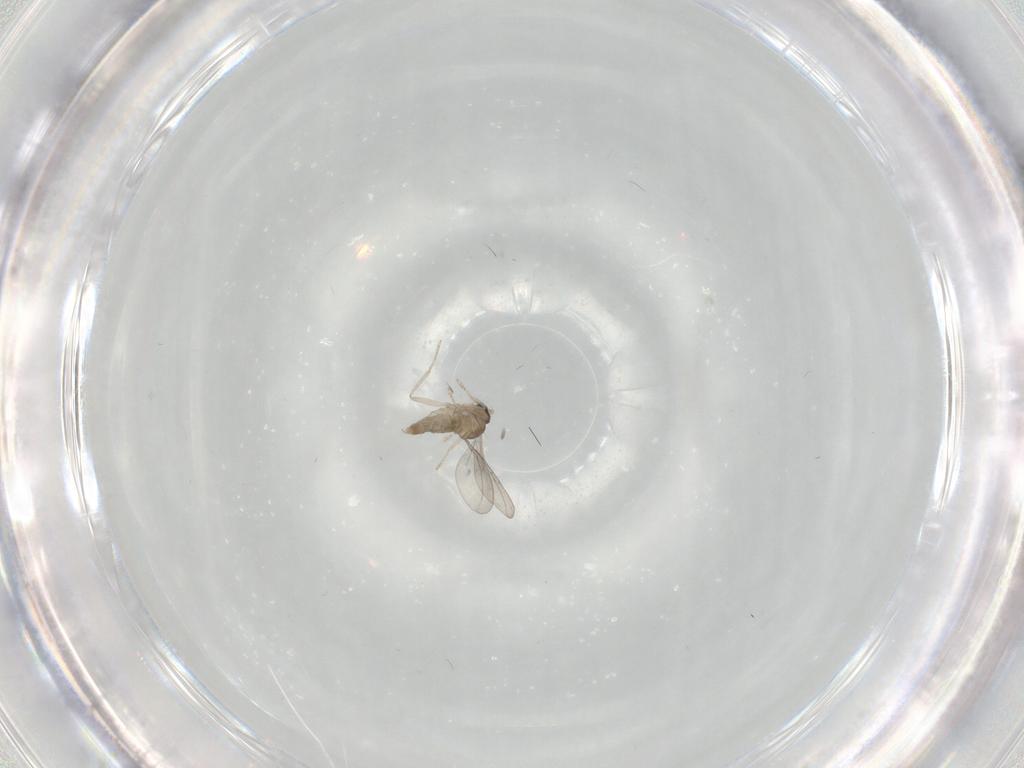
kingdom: Animalia
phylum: Arthropoda
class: Insecta
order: Diptera
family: Cecidomyiidae
